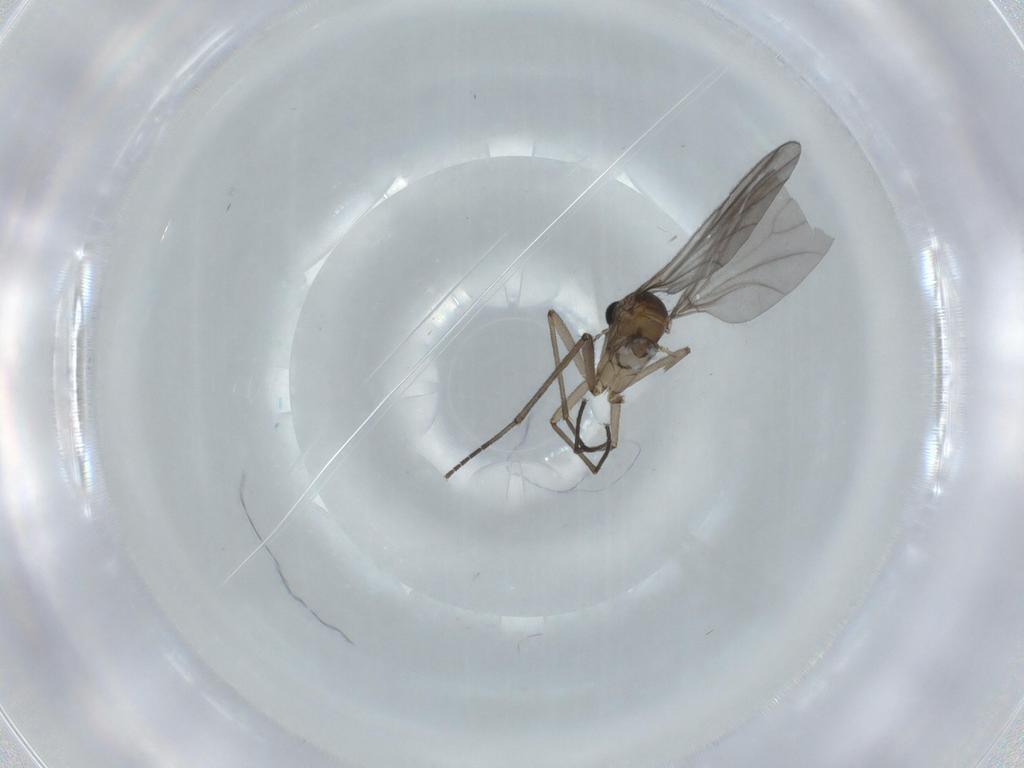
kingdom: Animalia
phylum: Arthropoda
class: Insecta
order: Diptera
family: Sciaridae
